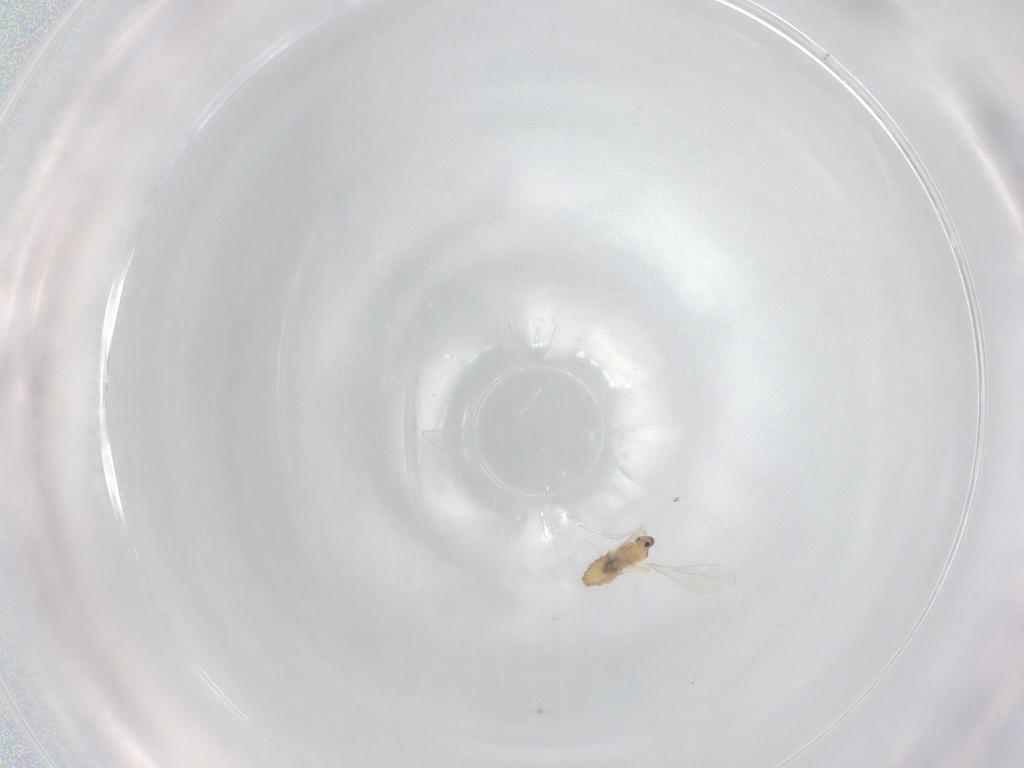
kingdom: Animalia
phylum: Arthropoda
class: Insecta
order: Diptera
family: Cecidomyiidae
